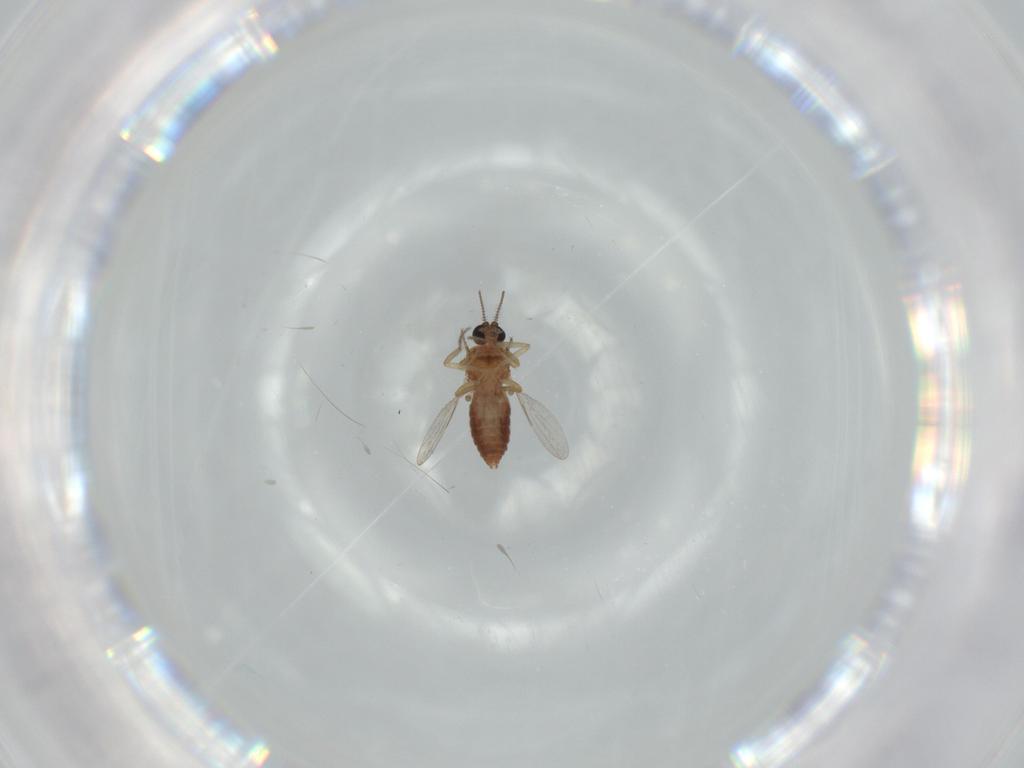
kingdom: Animalia
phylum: Arthropoda
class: Insecta
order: Diptera
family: Ceratopogonidae
